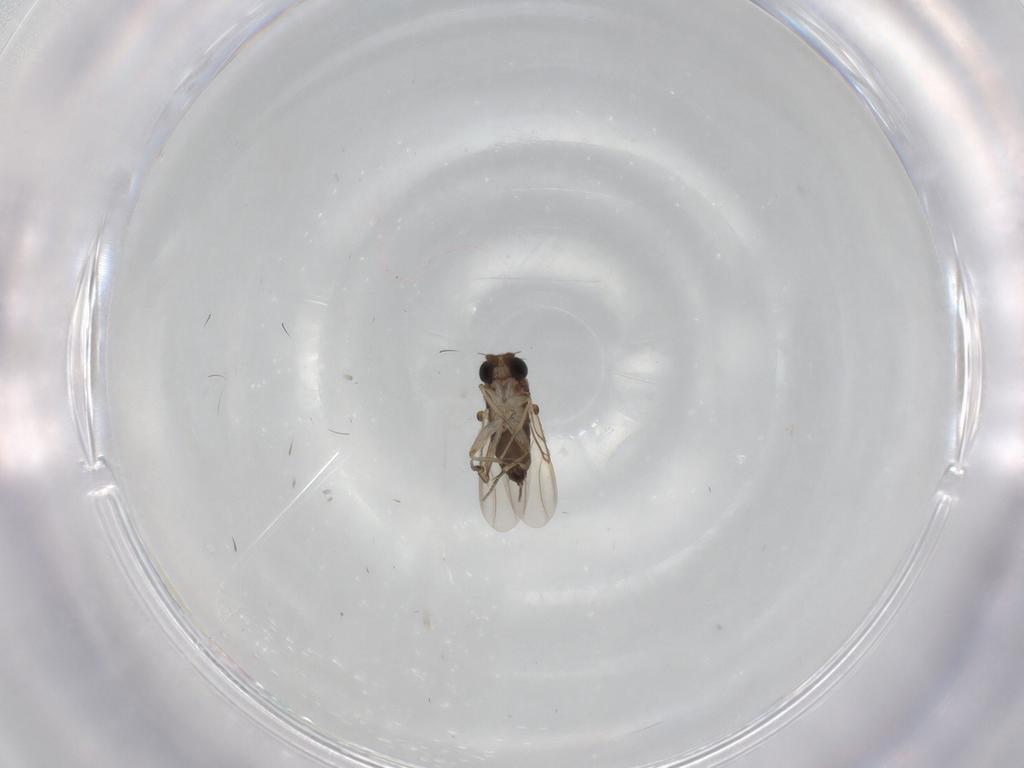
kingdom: Animalia
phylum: Arthropoda
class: Insecta
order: Diptera
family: Phoridae
